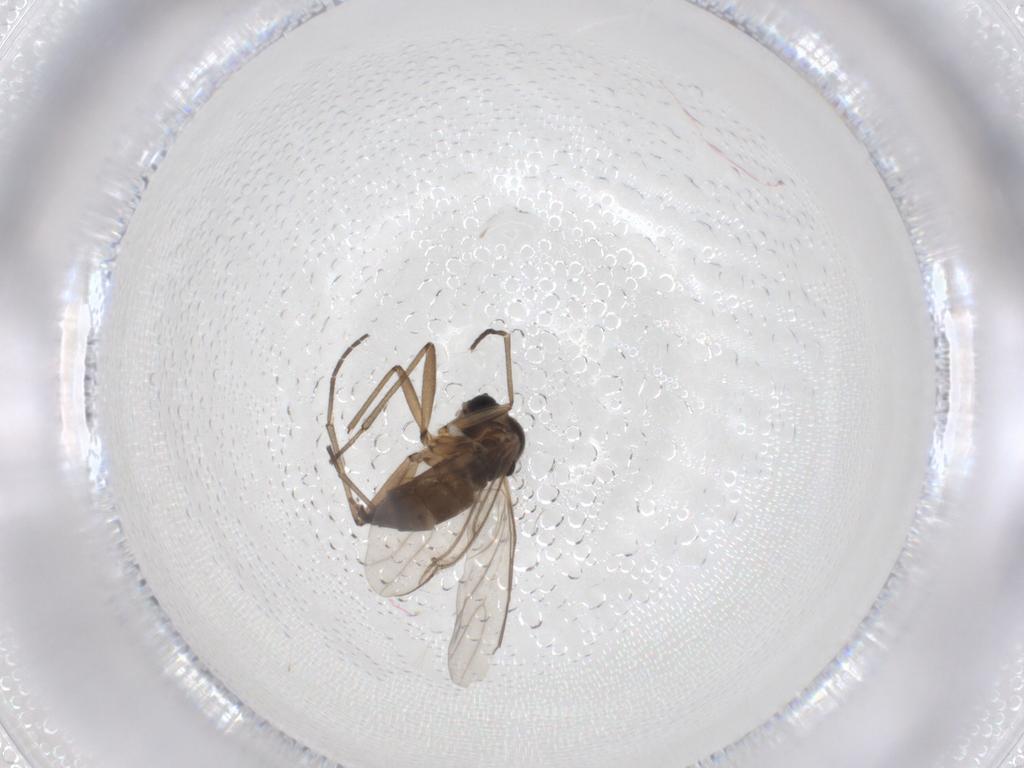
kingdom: Animalia
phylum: Arthropoda
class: Insecta
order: Diptera
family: Empididae
